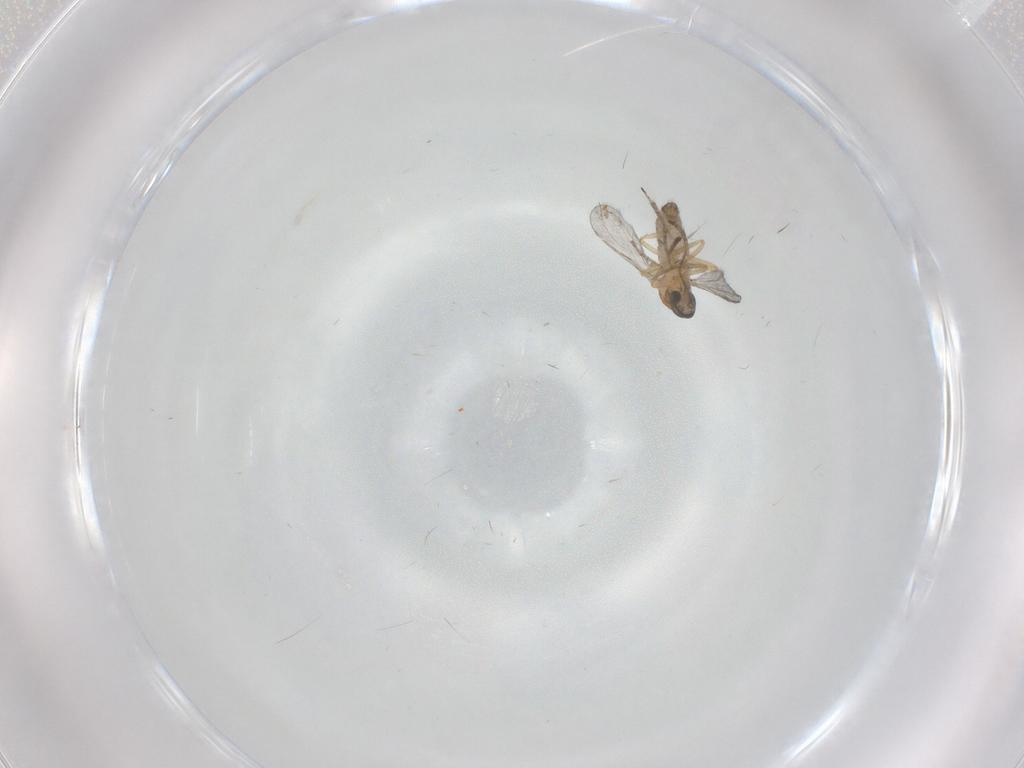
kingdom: Animalia
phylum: Arthropoda
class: Insecta
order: Diptera
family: Ceratopogonidae
